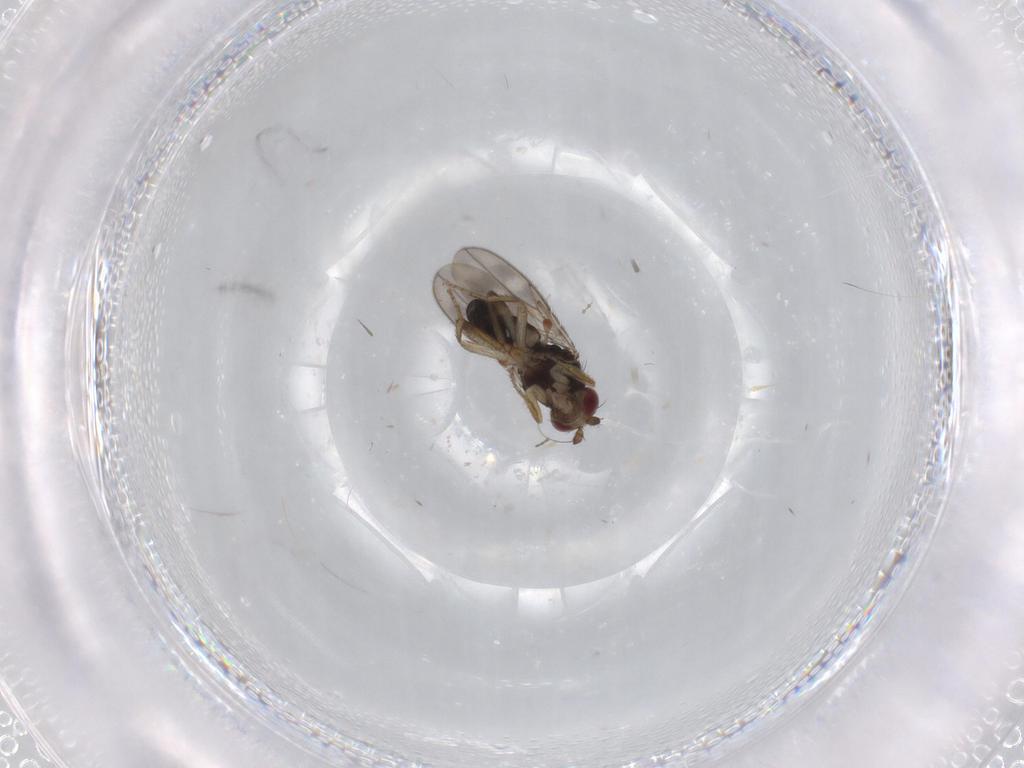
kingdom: Animalia
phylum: Arthropoda
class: Insecta
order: Diptera
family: Sphaeroceridae
